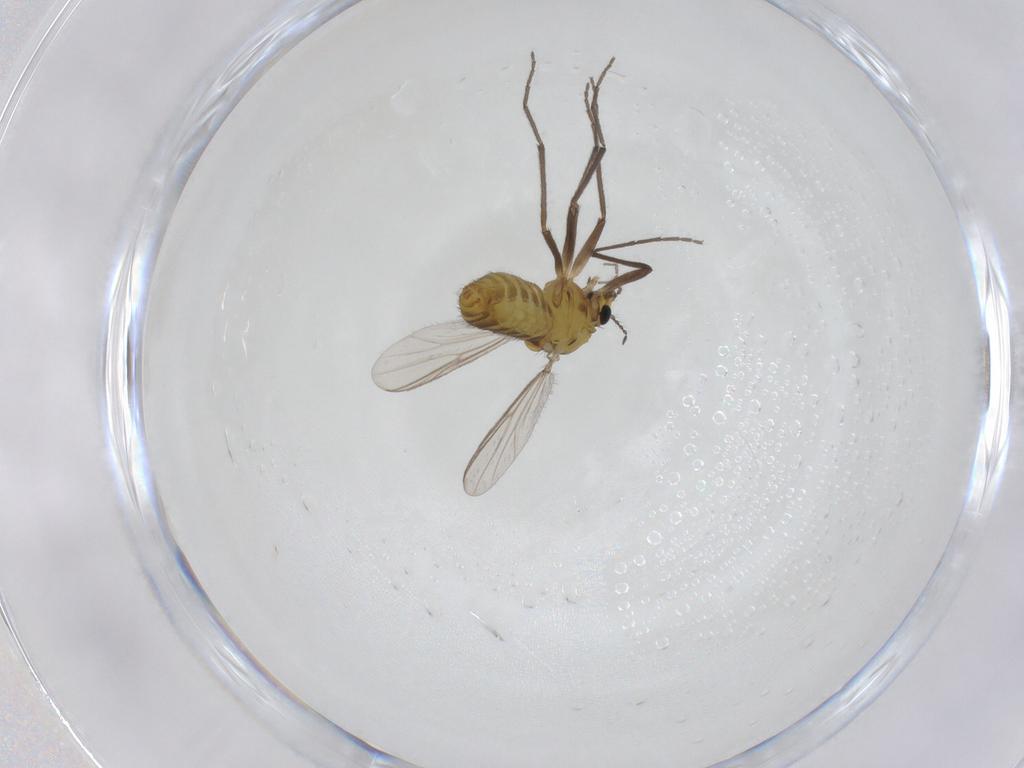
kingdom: Animalia
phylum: Arthropoda
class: Insecta
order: Diptera
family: Chironomidae
